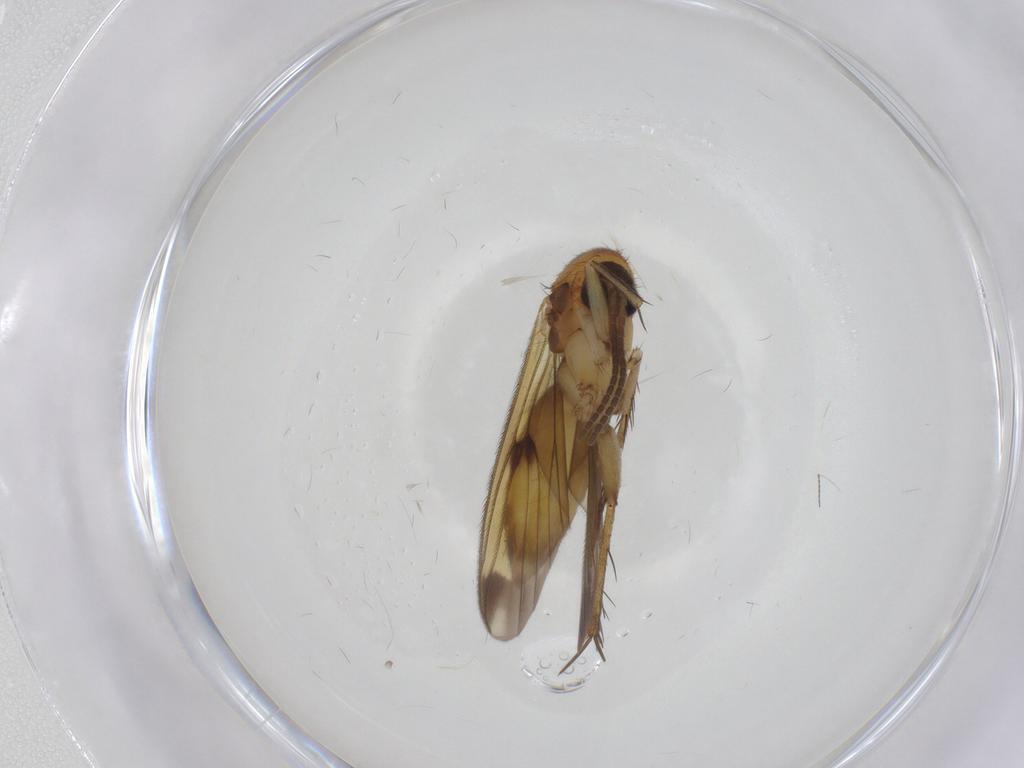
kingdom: Animalia
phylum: Arthropoda
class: Insecta
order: Diptera
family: Mycetophilidae
